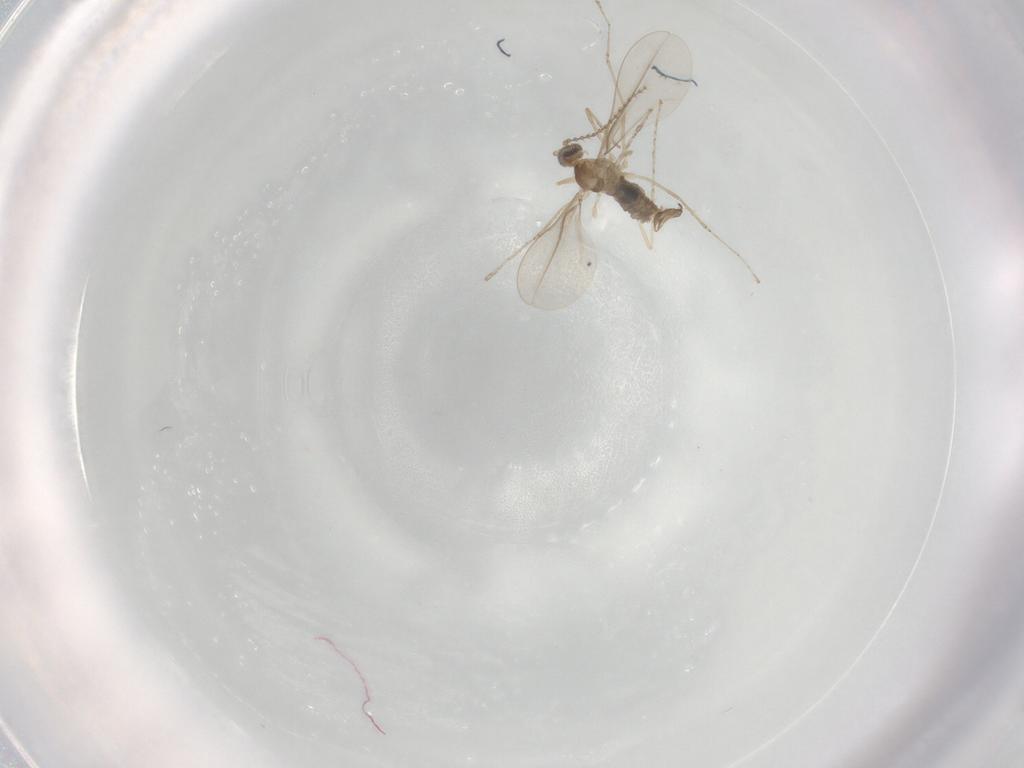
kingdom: Animalia
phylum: Arthropoda
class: Insecta
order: Diptera
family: Cecidomyiidae
